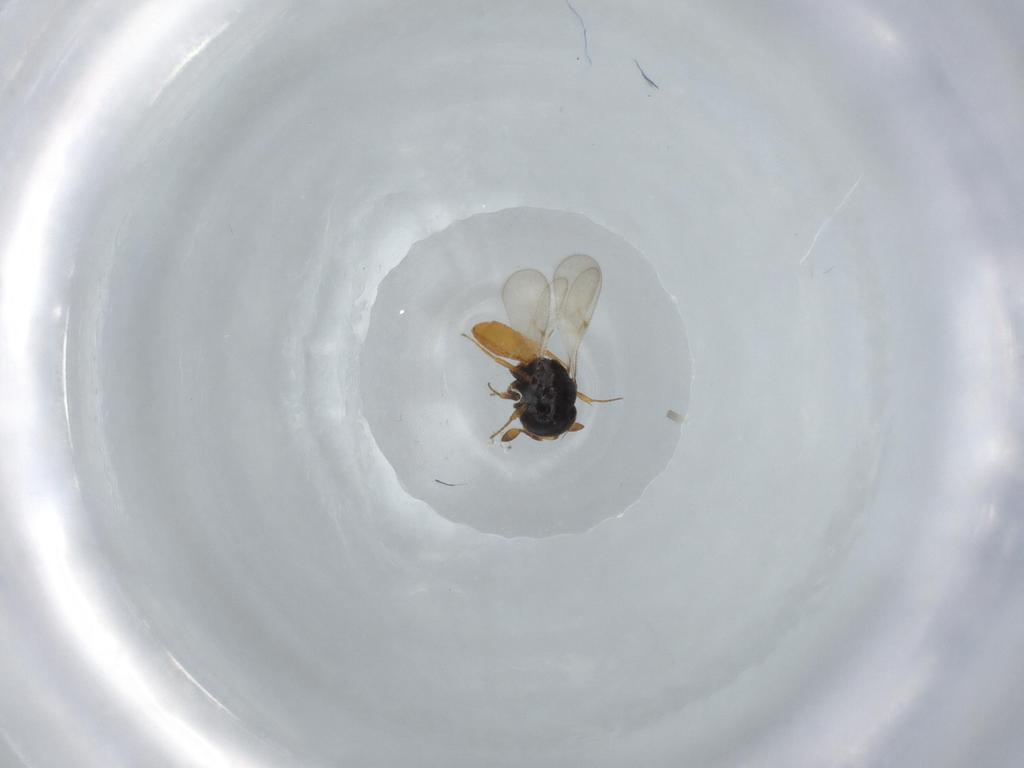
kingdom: Animalia
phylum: Arthropoda
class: Insecta
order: Hymenoptera
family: Scelionidae
